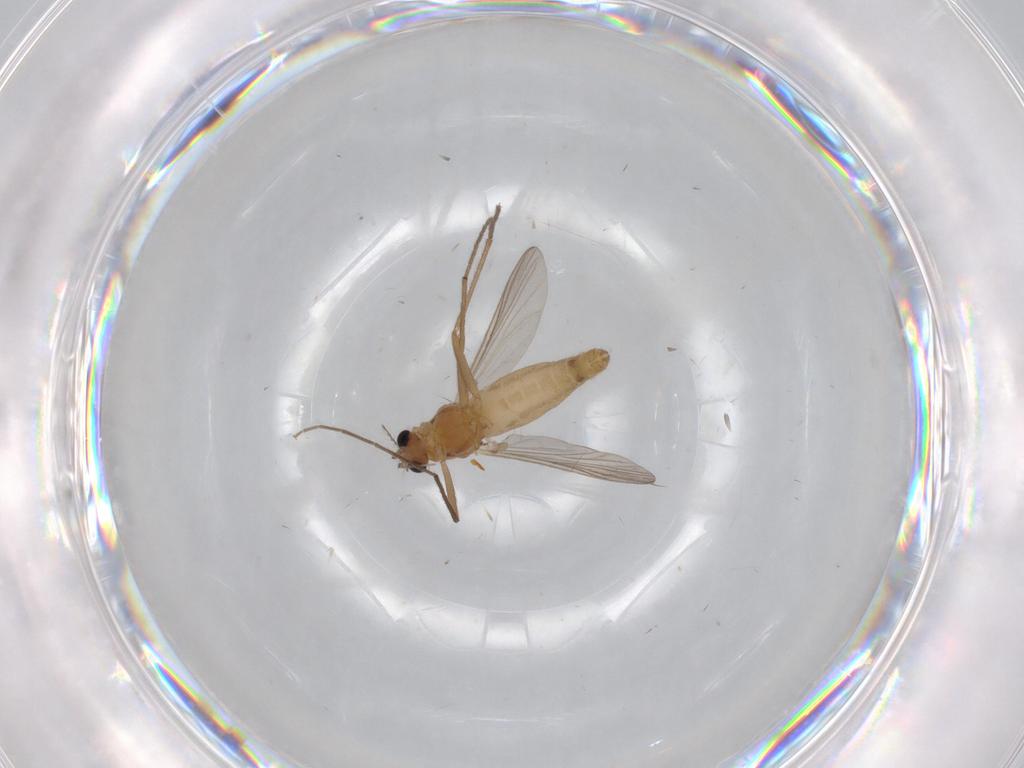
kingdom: Animalia
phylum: Arthropoda
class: Insecta
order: Diptera
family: Chironomidae
